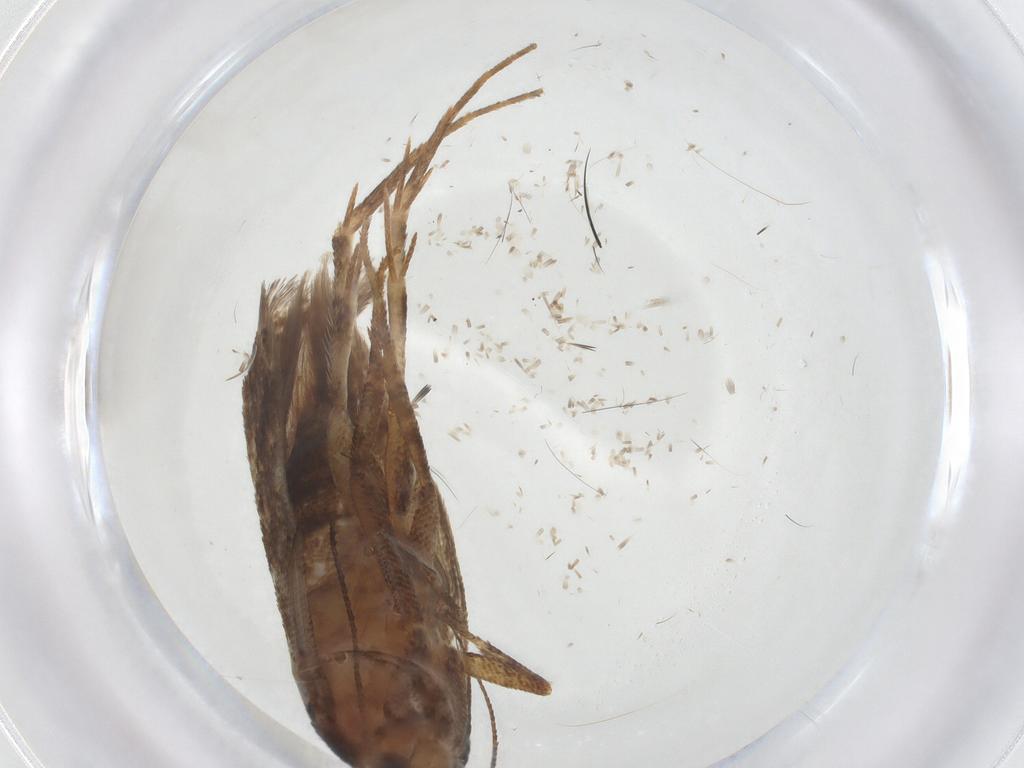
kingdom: Animalia
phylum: Arthropoda
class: Insecta
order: Lepidoptera
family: Gelechiidae
